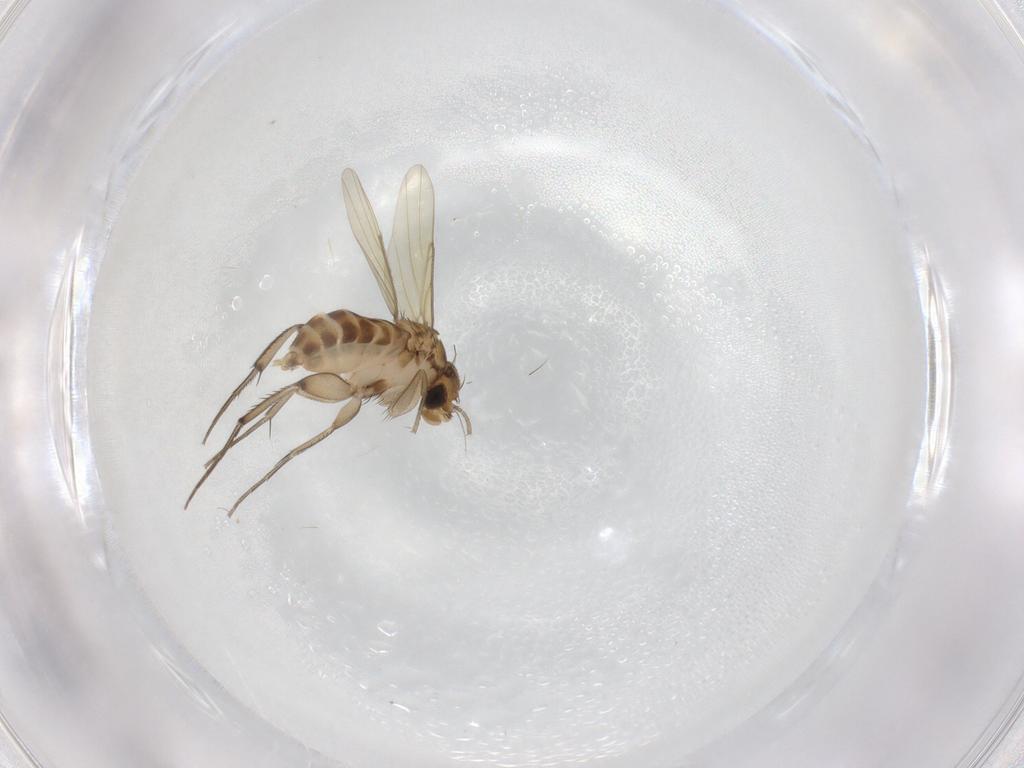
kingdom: Animalia
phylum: Arthropoda
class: Insecta
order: Diptera
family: Phoridae
